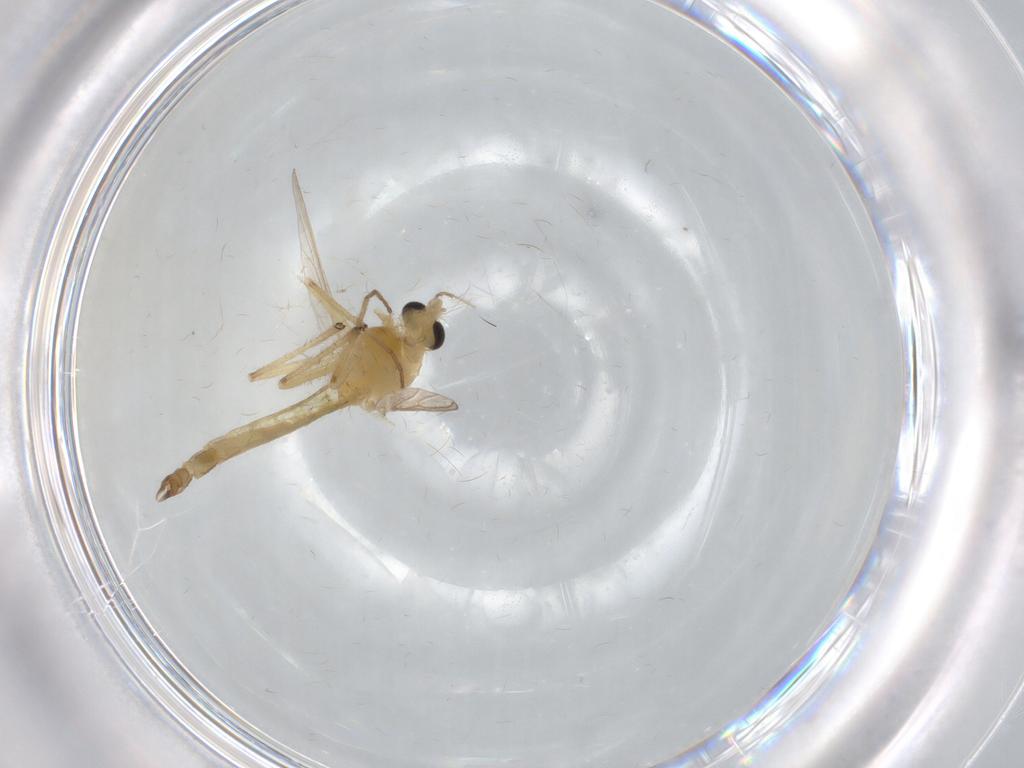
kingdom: Animalia
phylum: Arthropoda
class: Insecta
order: Diptera
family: Chironomidae
